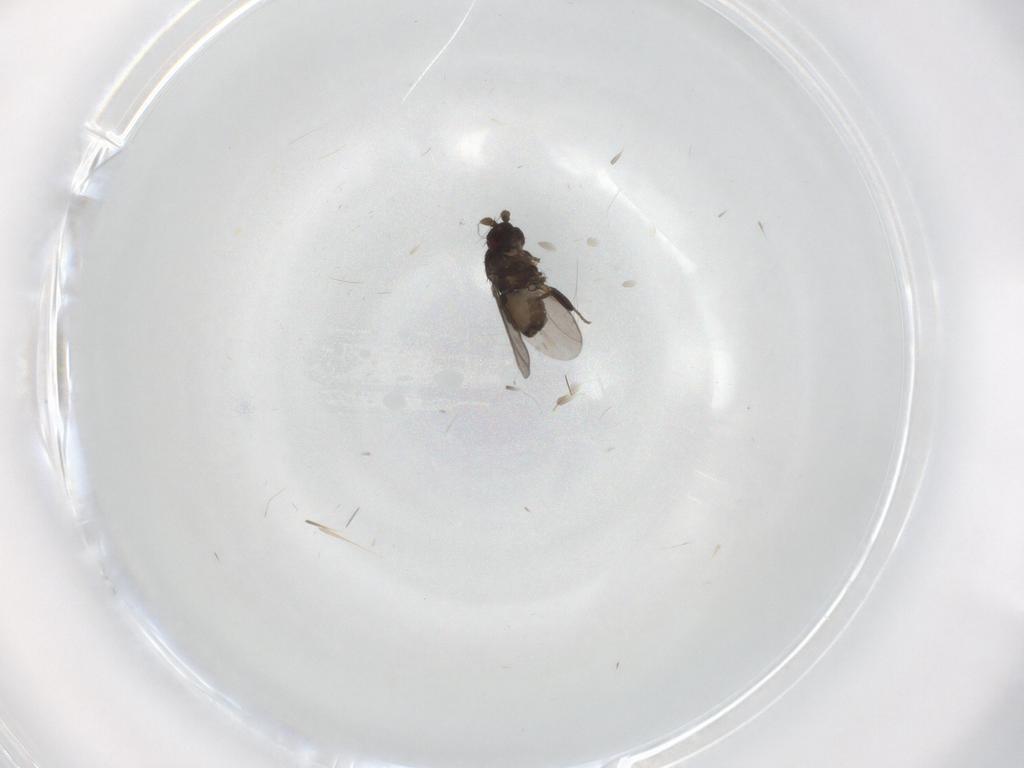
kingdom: Animalia
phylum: Arthropoda
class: Insecta
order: Diptera
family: Sphaeroceridae
